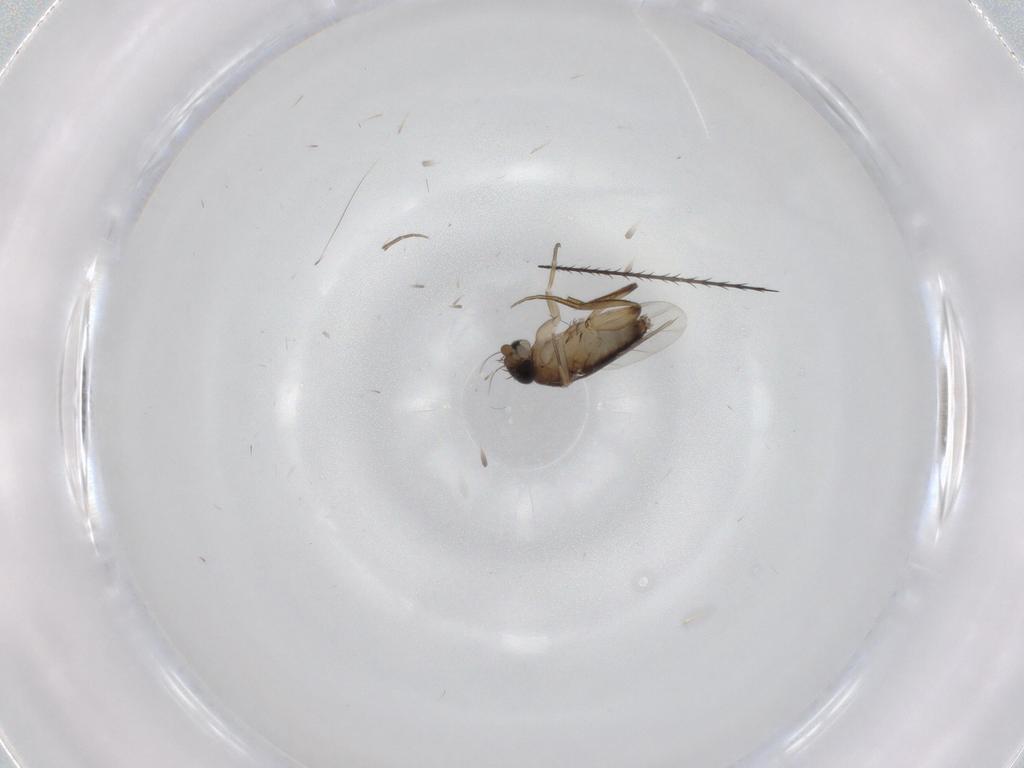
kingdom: Animalia
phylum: Arthropoda
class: Insecta
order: Diptera
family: Phoridae
